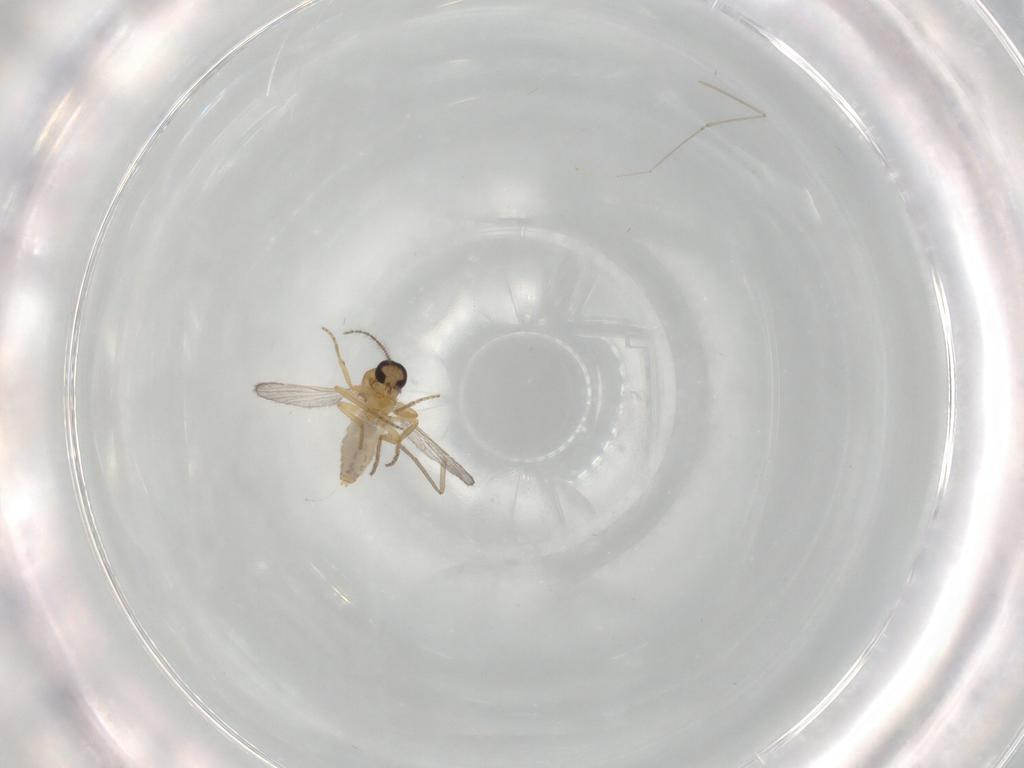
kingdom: Animalia
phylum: Arthropoda
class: Insecta
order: Diptera
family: Ceratopogonidae
